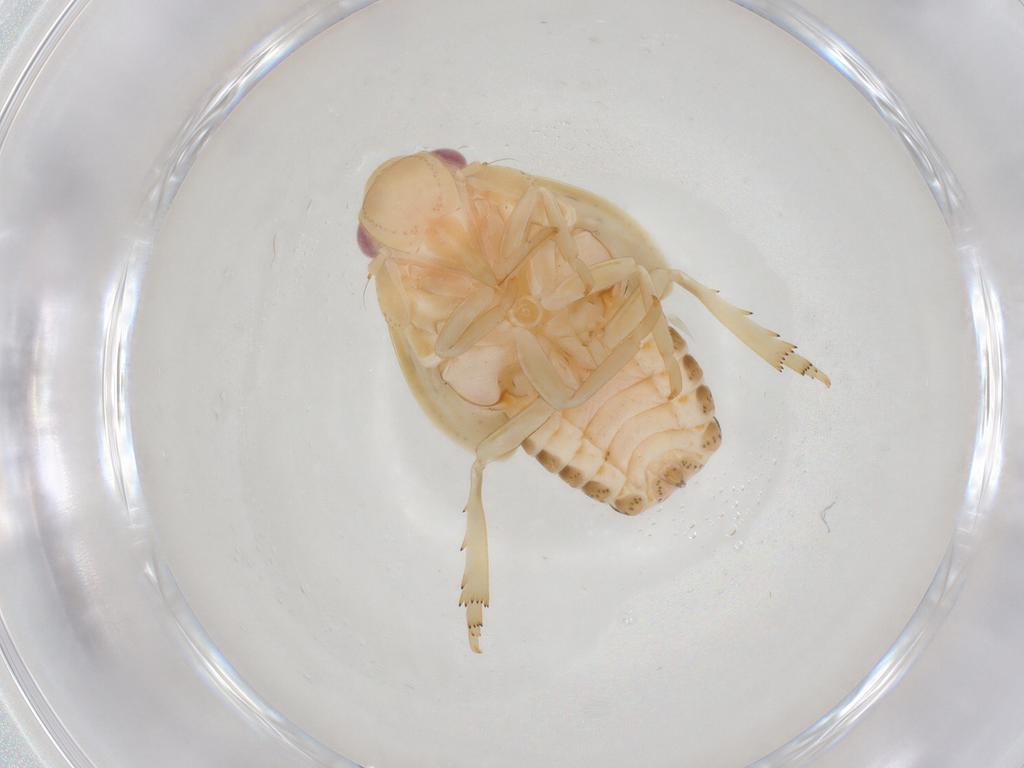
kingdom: Animalia
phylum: Arthropoda
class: Insecta
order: Hemiptera
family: Flatidae
